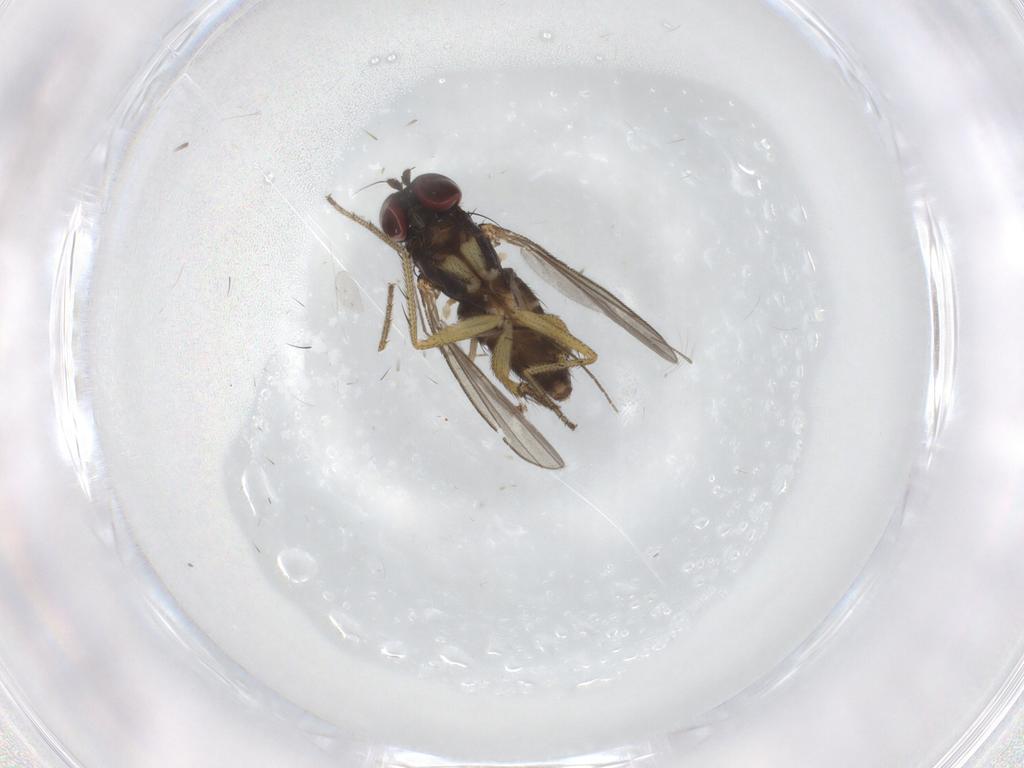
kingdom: Animalia
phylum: Arthropoda
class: Insecta
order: Diptera
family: Chironomidae
